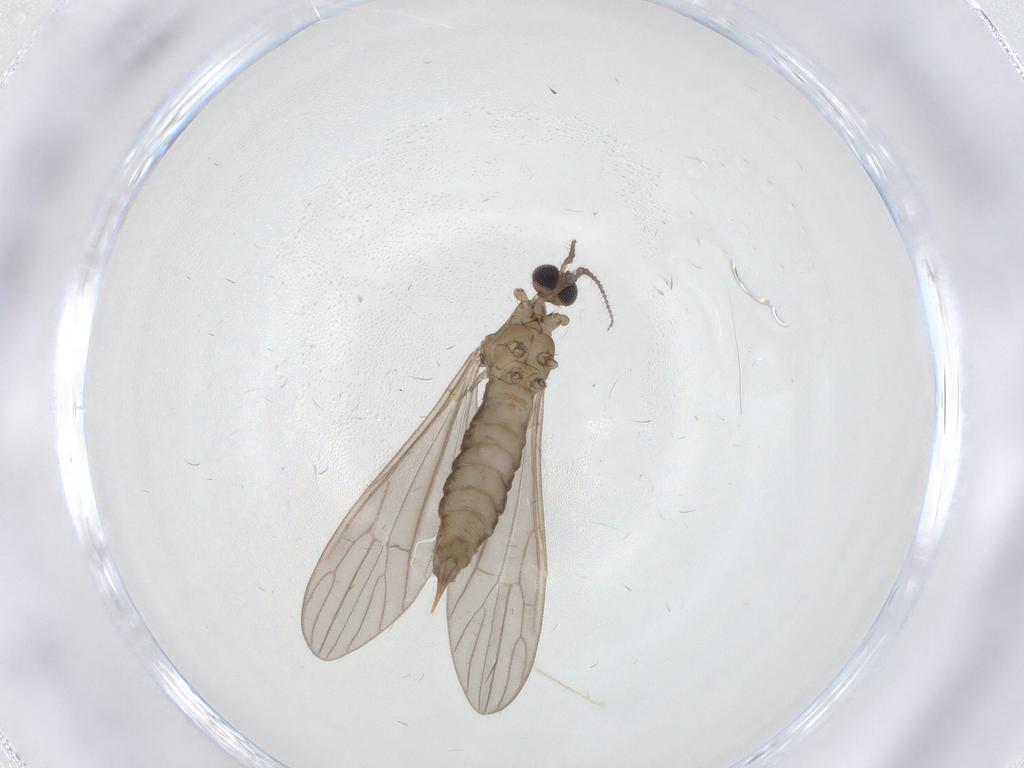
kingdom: Animalia
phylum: Arthropoda
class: Insecta
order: Diptera
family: Limoniidae
